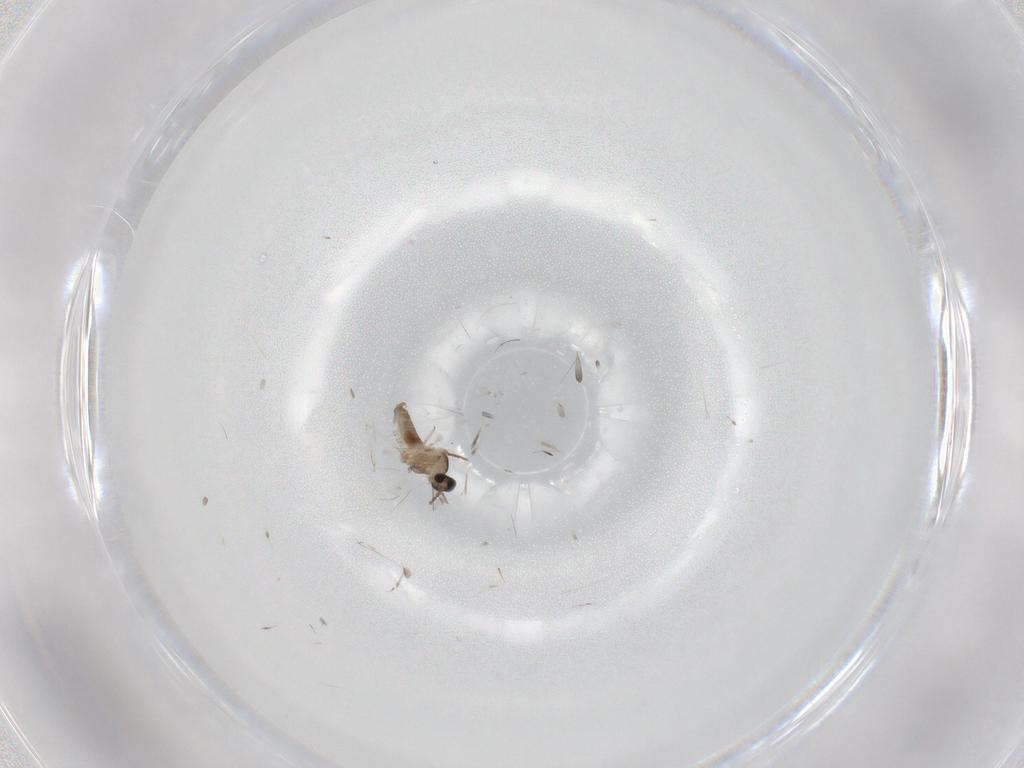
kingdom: Animalia
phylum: Arthropoda
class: Insecta
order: Diptera
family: Cecidomyiidae
